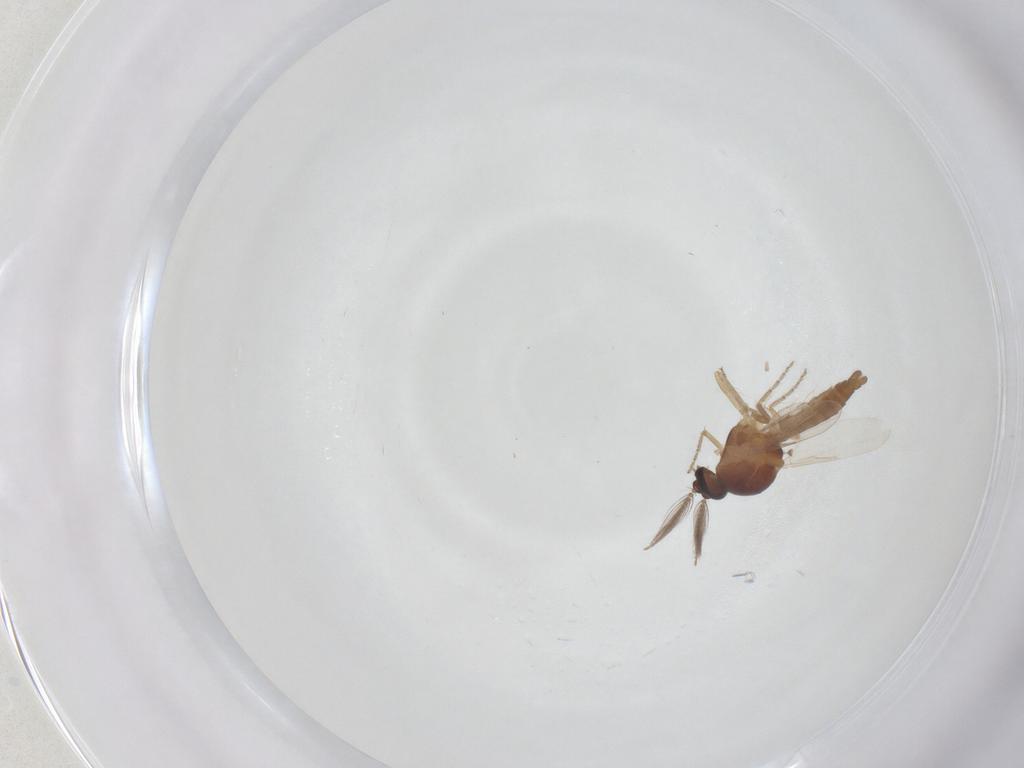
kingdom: Animalia
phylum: Arthropoda
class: Insecta
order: Diptera
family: Ceratopogonidae
